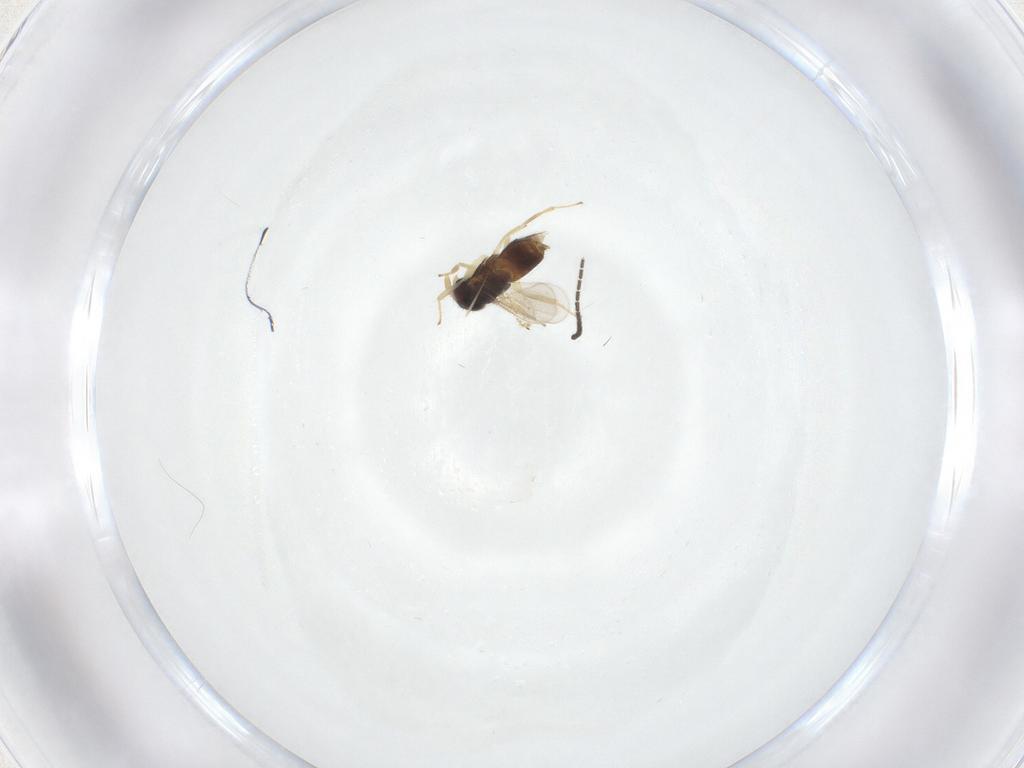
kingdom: Animalia
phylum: Arthropoda
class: Insecta
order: Diptera
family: Sciaridae
